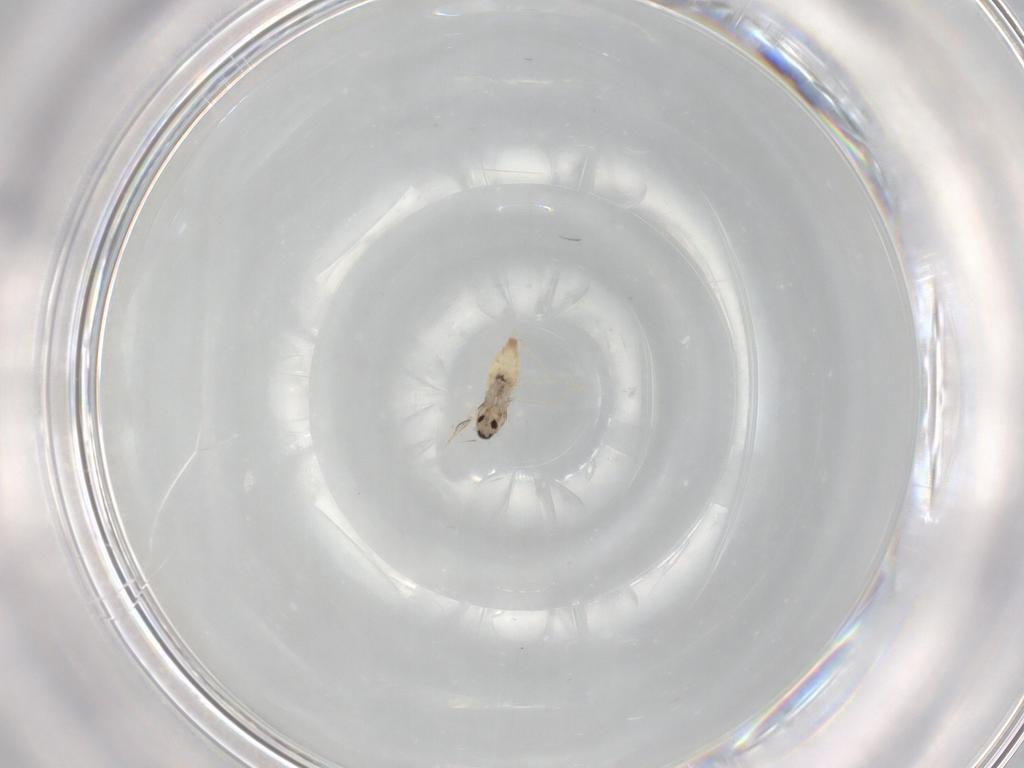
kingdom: Animalia
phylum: Arthropoda
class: Insecta
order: Diptera
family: Cecidomyiidae
